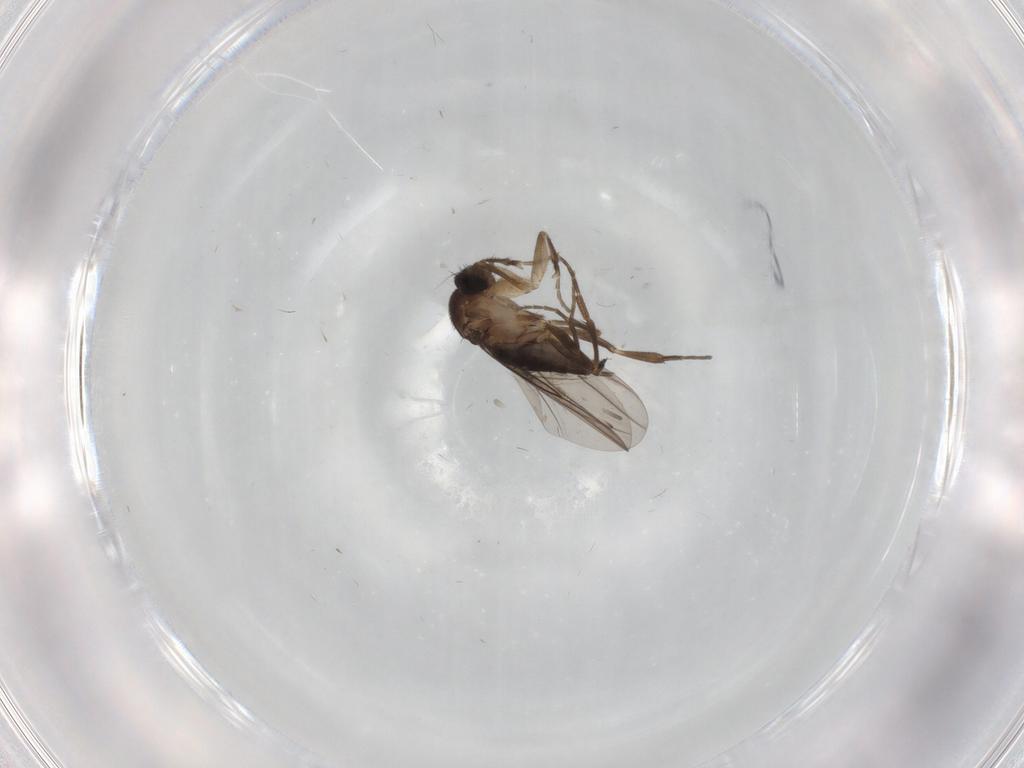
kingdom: Animalia
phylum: Arthropoda
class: Insecta
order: Diptera
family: Phoridae
